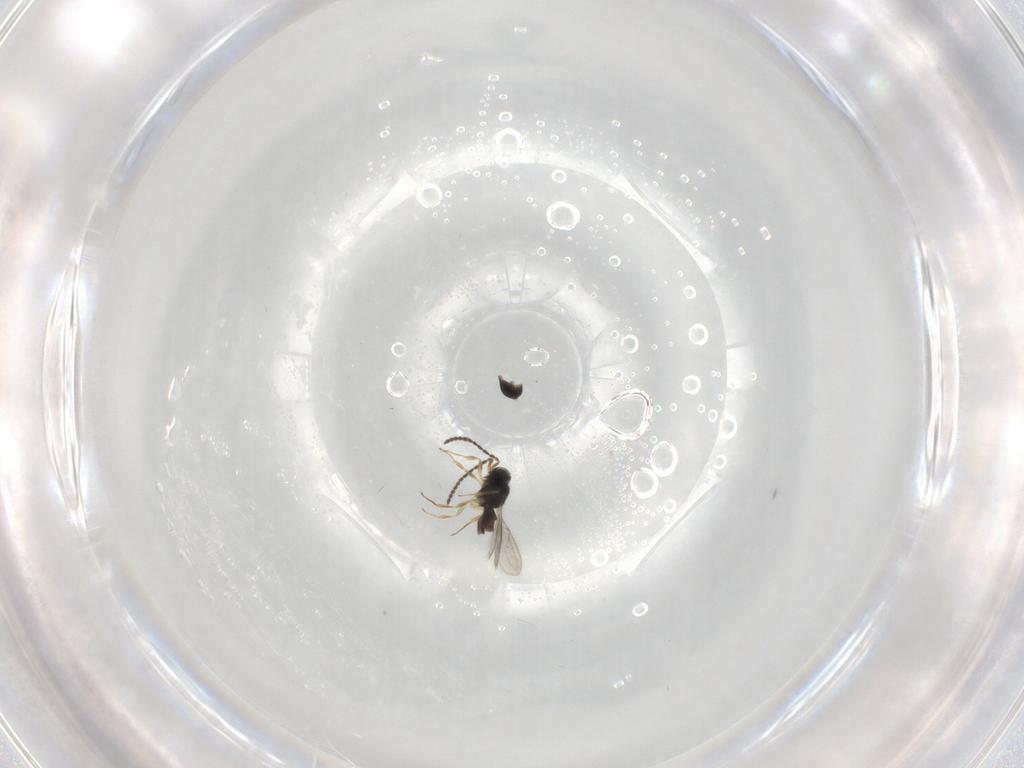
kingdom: Animalia
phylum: Arthropoda
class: Insecta
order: Hymenoptera
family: Scelionidae
